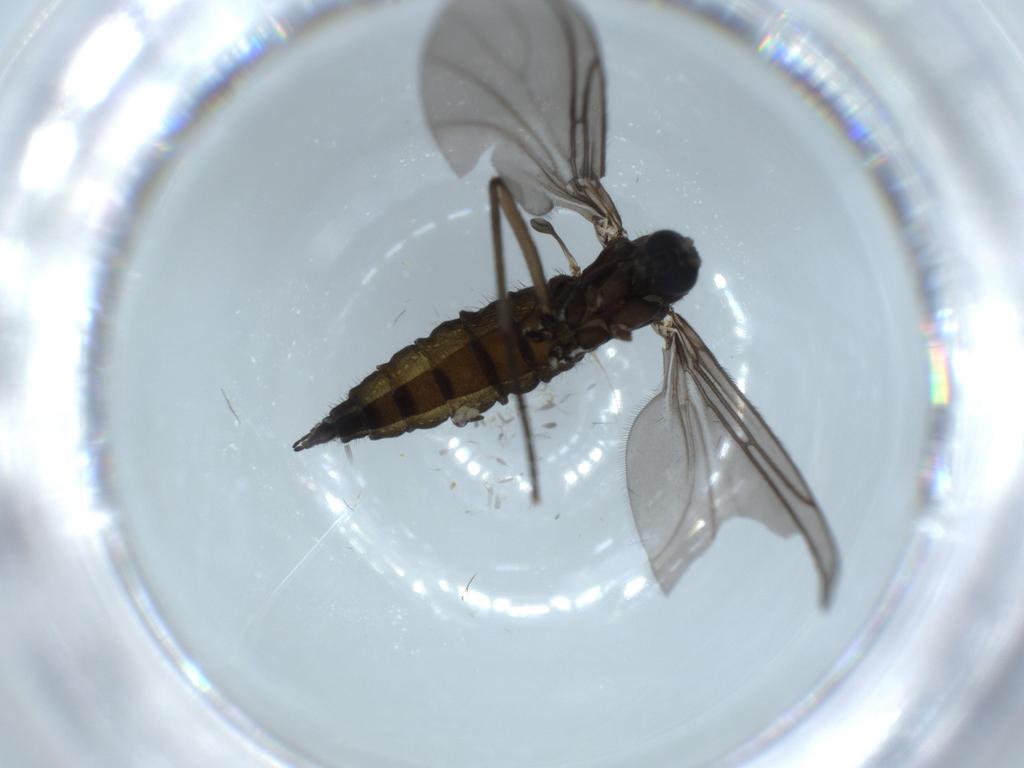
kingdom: Animalia
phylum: Arthropoda
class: Insecta
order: Diptera
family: Sciaridae
